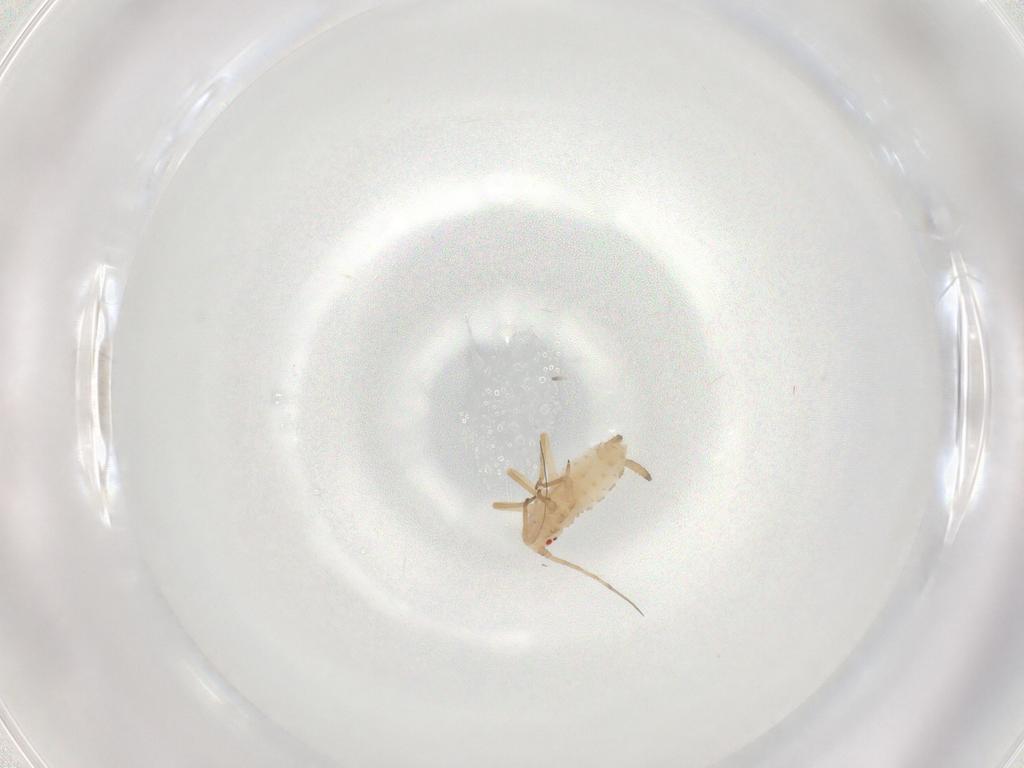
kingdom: Animalia
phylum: Arthropoda
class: Insecta
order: Hemiptera
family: Aphididae
